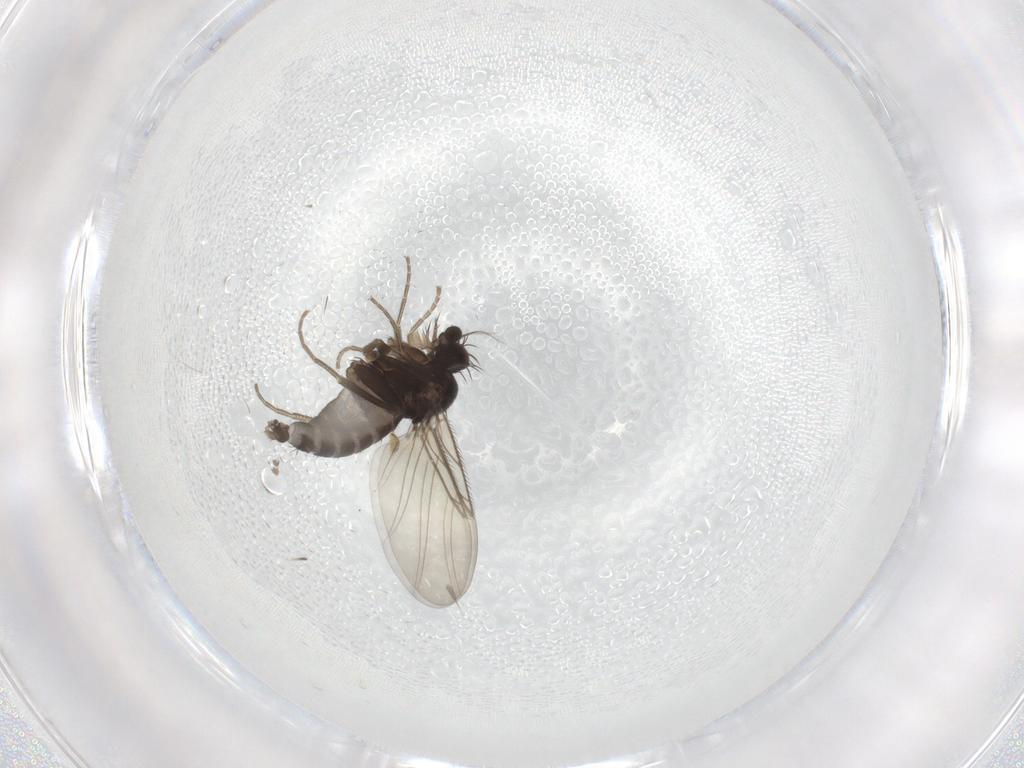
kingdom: Animalia
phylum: Arthropoda
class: Insecta
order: Diptera
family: Phoridae
